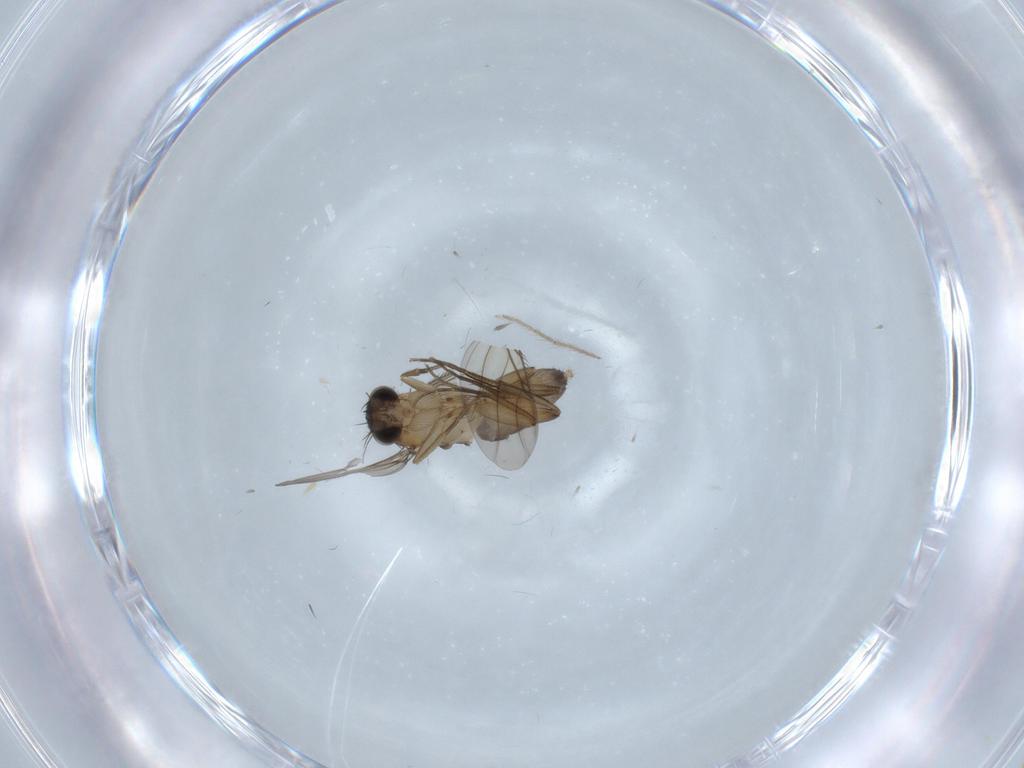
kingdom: Animalia
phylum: Arthropoda
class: Insecta
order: Diptera
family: Phoridae
